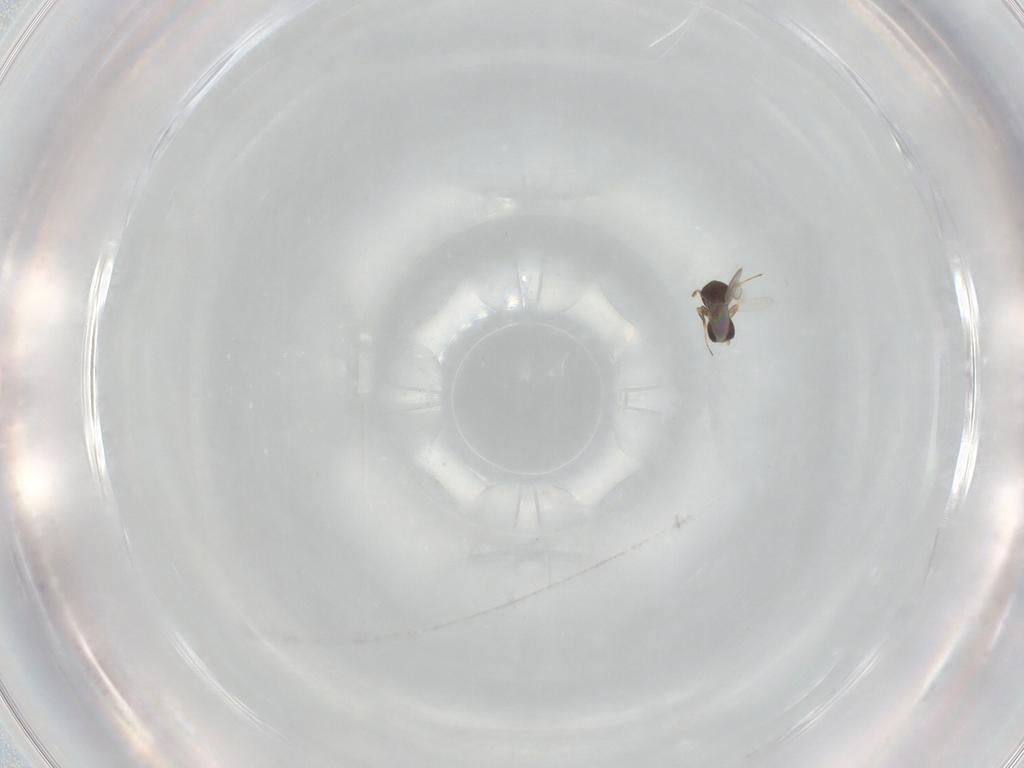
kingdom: Animalia
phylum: Arthropoda
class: Insecta
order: Hymenoptera
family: Scelionidae
